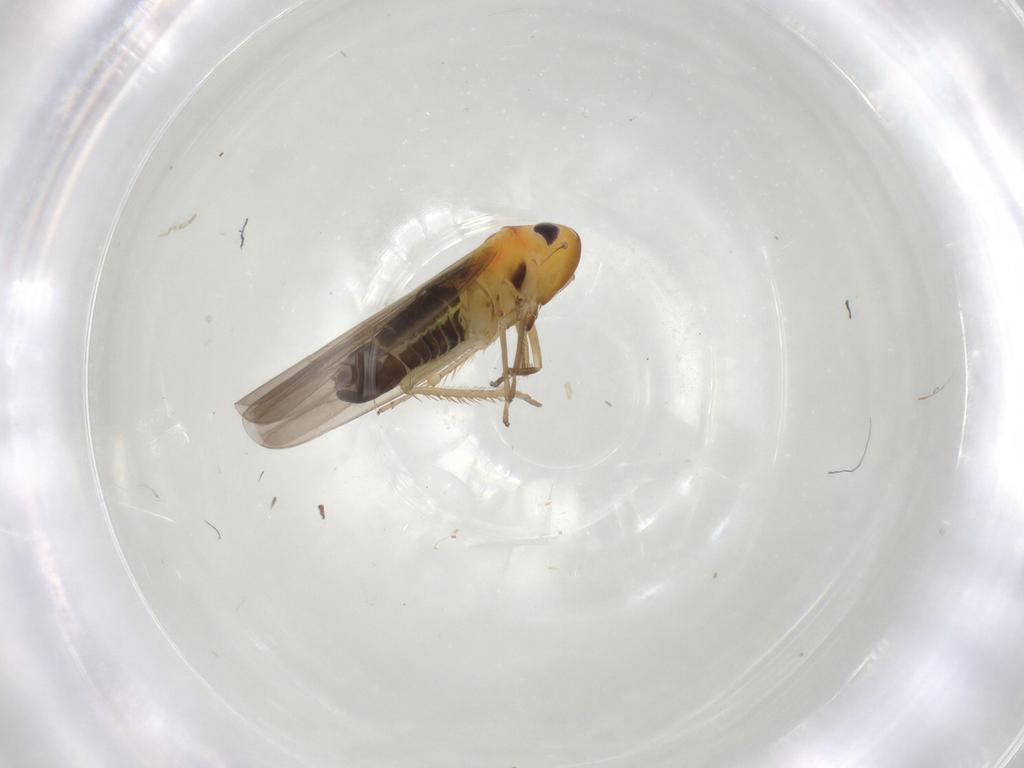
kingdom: Animalia
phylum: Arthropoda
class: Insecta
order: Hemiptera
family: Cicadellidae
